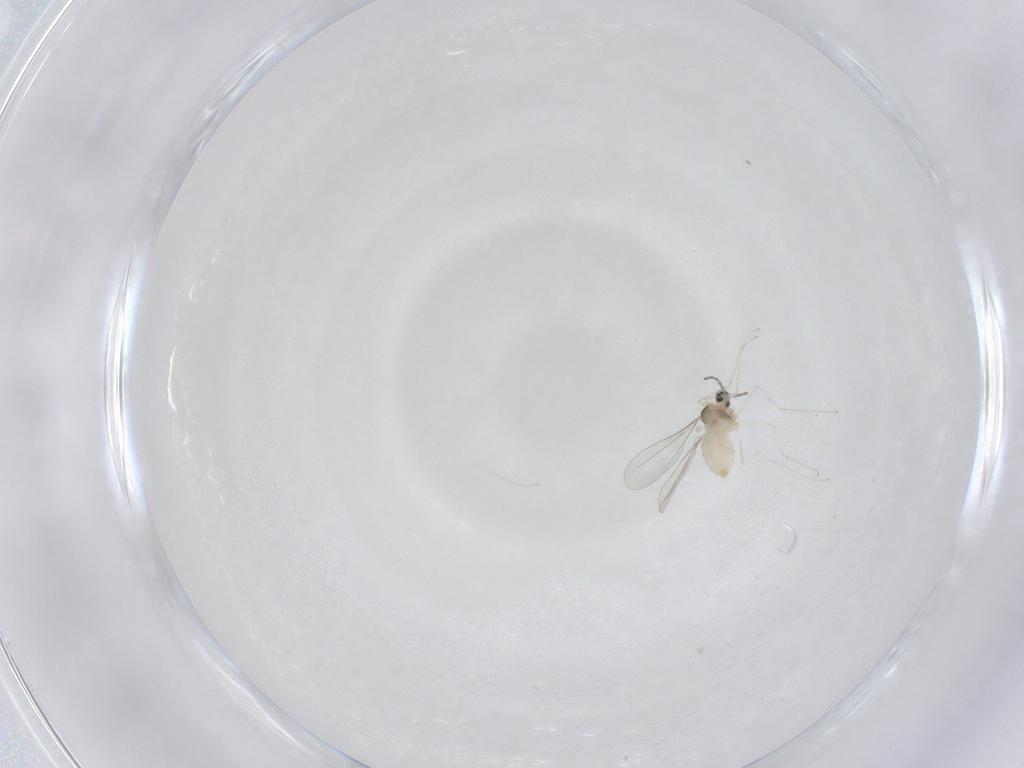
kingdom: Animalia
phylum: Arthropoda
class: Insecta
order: Diptera
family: Cecidomyiidae
